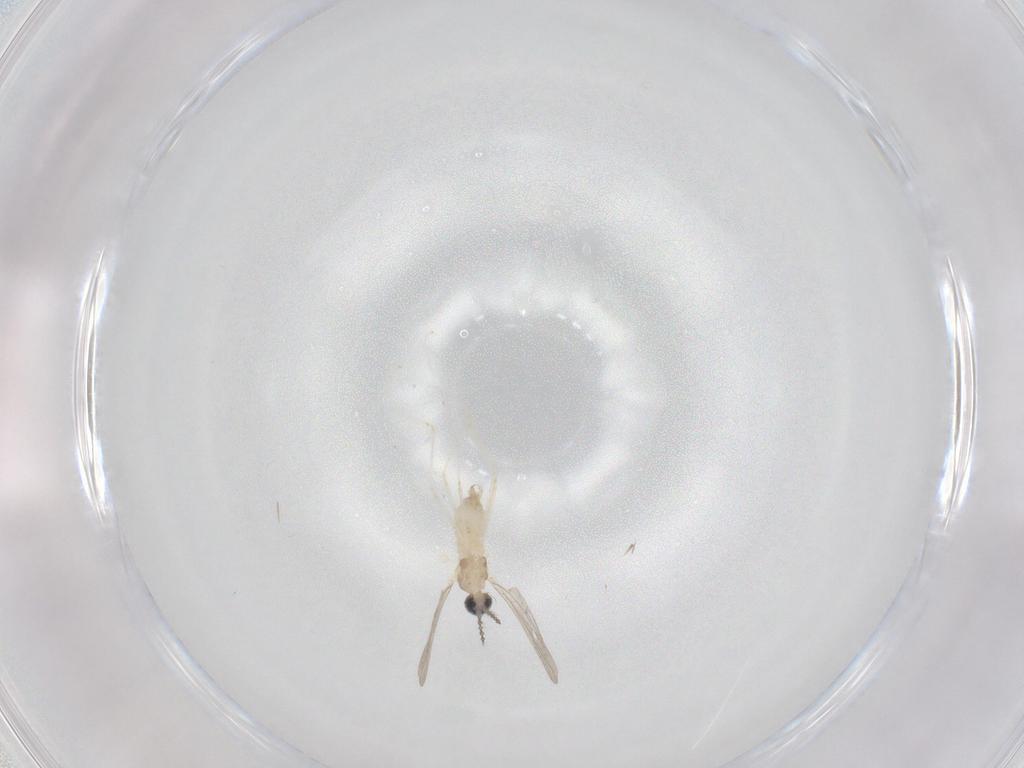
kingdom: Animalia
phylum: Arthropoda
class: Insecta
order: Diptera
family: Cecidomyiidae
